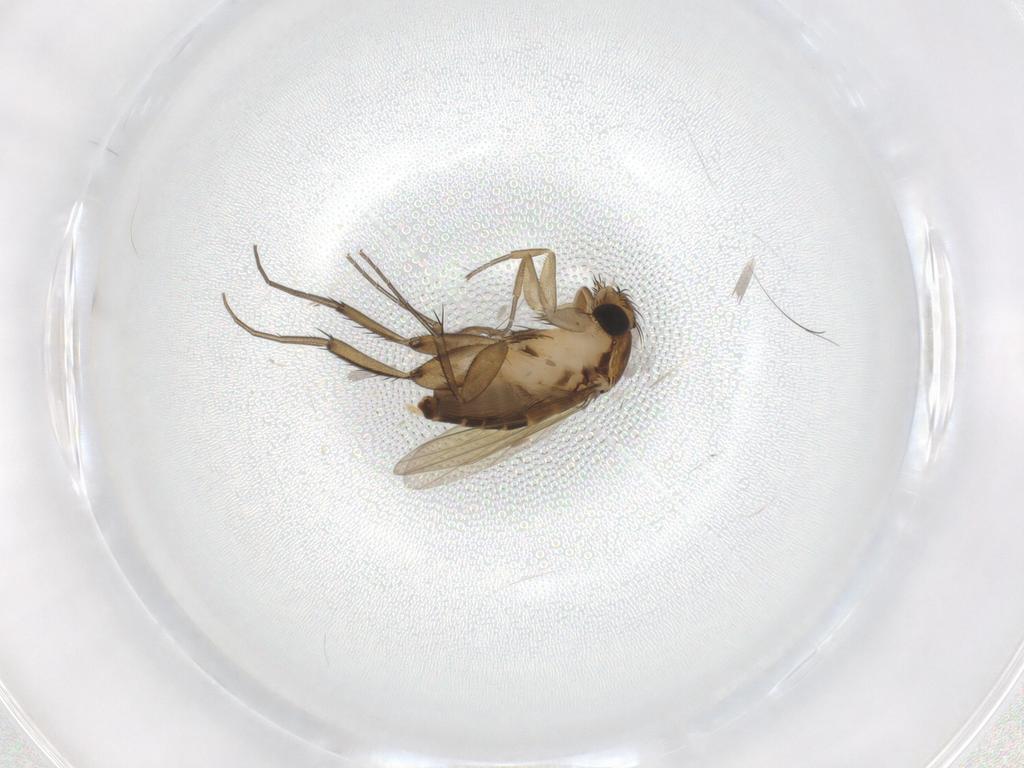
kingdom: Animalia
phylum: Arthropoda
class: Insecta
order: Diptera
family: Phoridae
